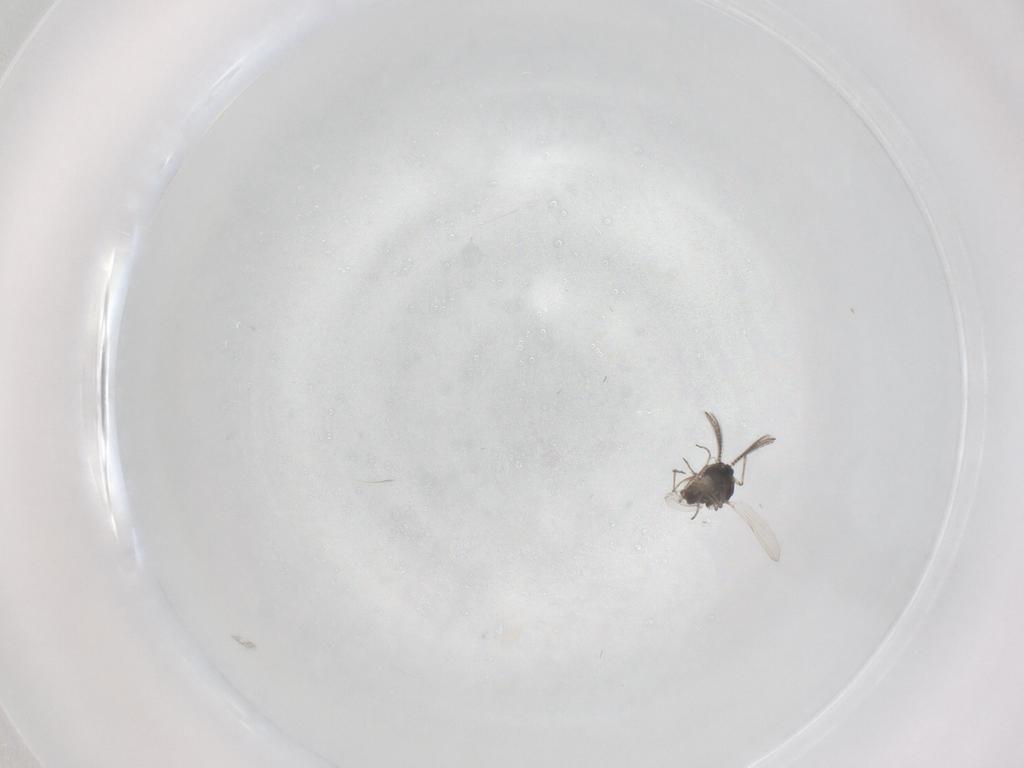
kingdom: Animalia
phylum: Arthropoda
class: Insecta
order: Diptera
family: Ceratopogonidae
